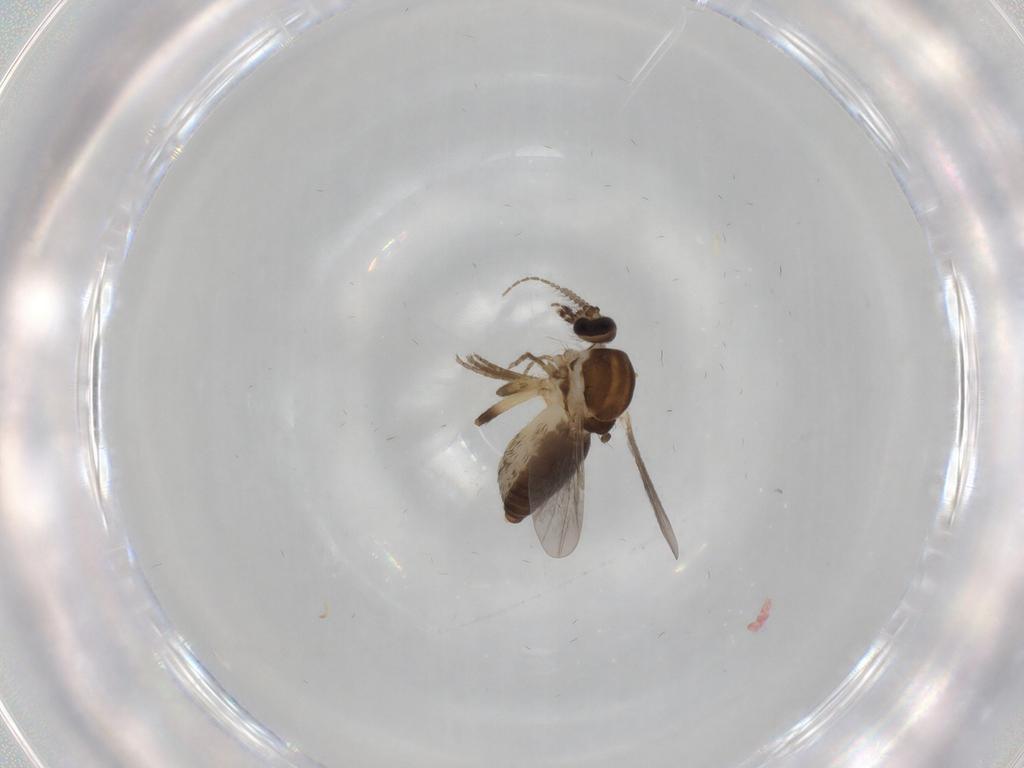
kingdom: Animalia
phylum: Arthropoda
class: Insecta
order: Diptera
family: Ceratopogonidae
